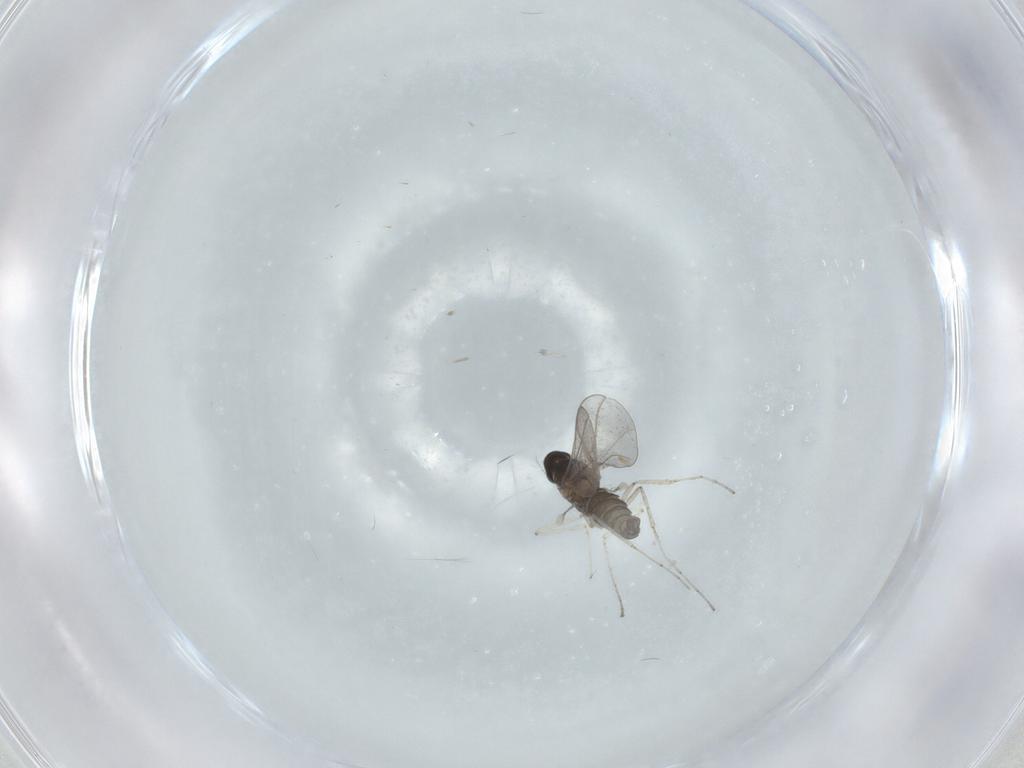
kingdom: Animalia
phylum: Arthropoda
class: Insecta
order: Diptera
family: Cecidomyiidae
